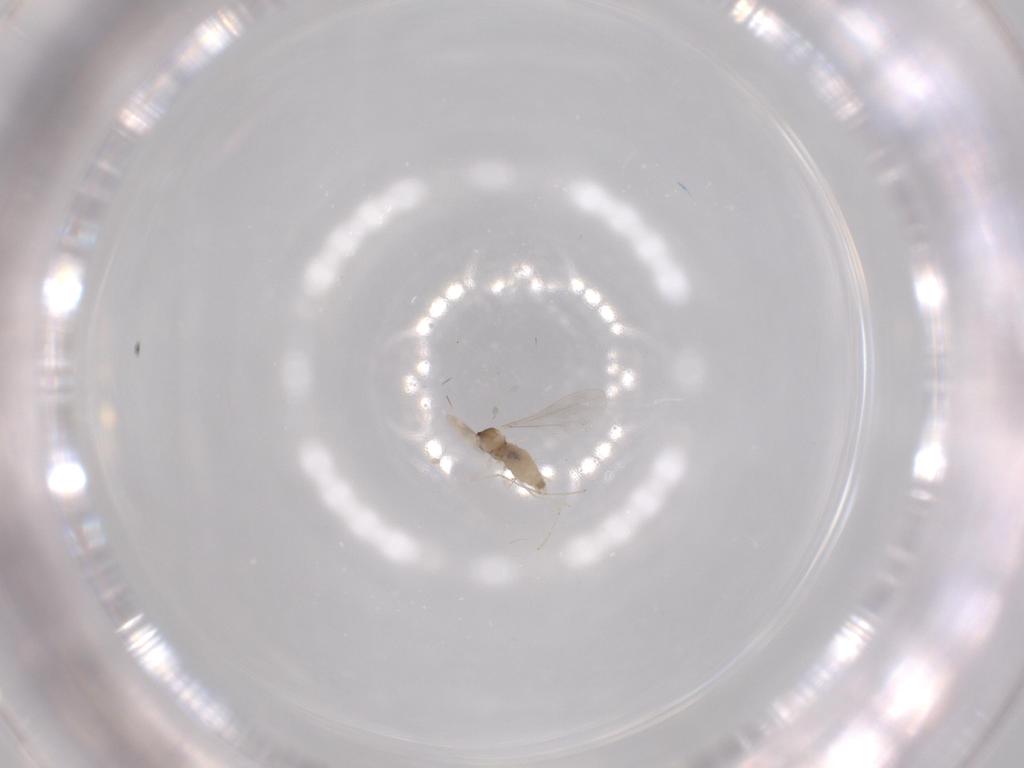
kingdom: Animalia
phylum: Arthropoda
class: Insecta
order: Diptera
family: Cecidomyiidae
